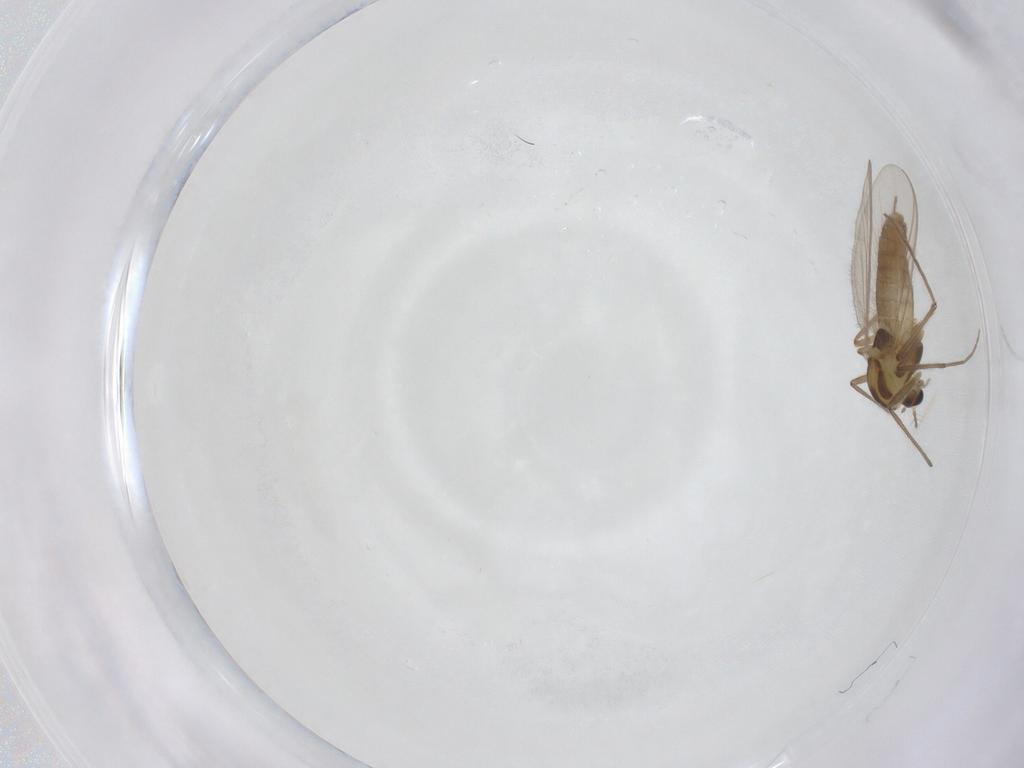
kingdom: Animalia
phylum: Arthropoda
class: Insecta
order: Diptera
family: Chironomidae
